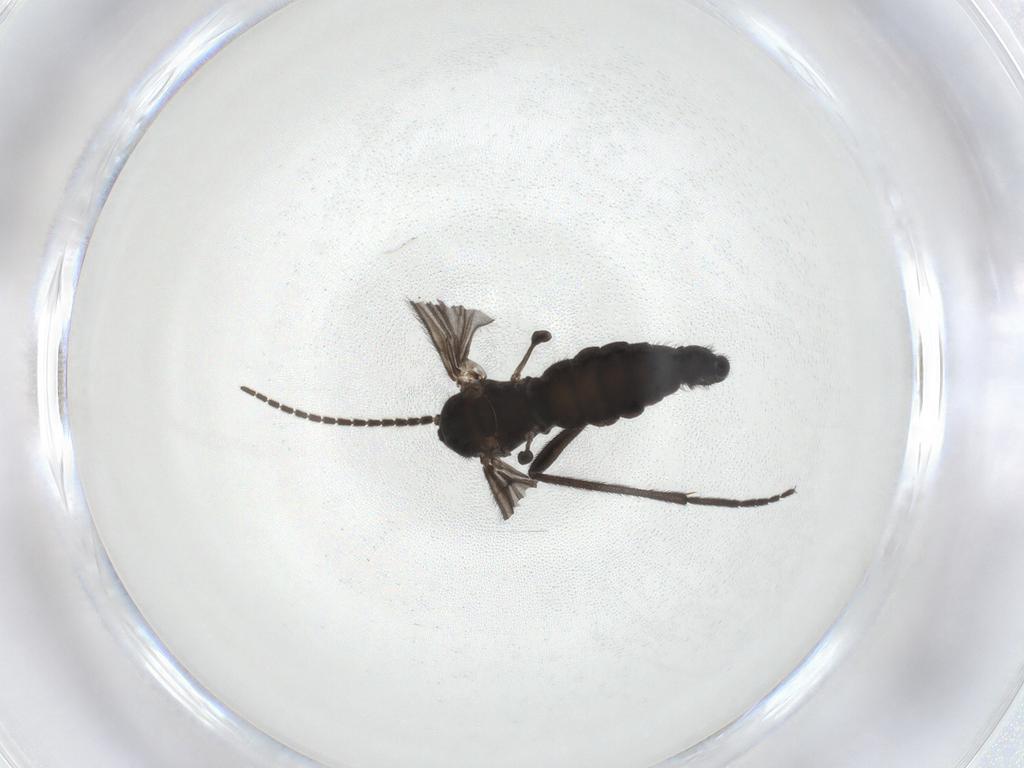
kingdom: Animalia
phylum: Arthropoda
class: Insecta
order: Diptera
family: Sciaridae
